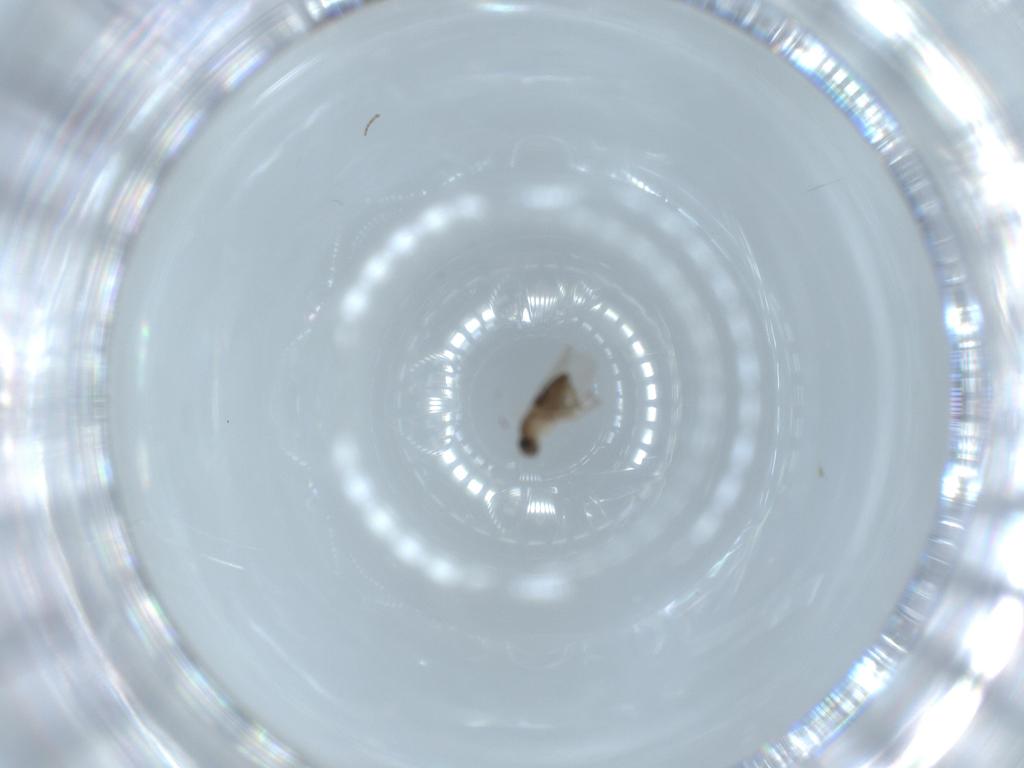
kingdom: Animalia
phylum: Arthropoda
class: Insecta
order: Diptera
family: Phoridae
